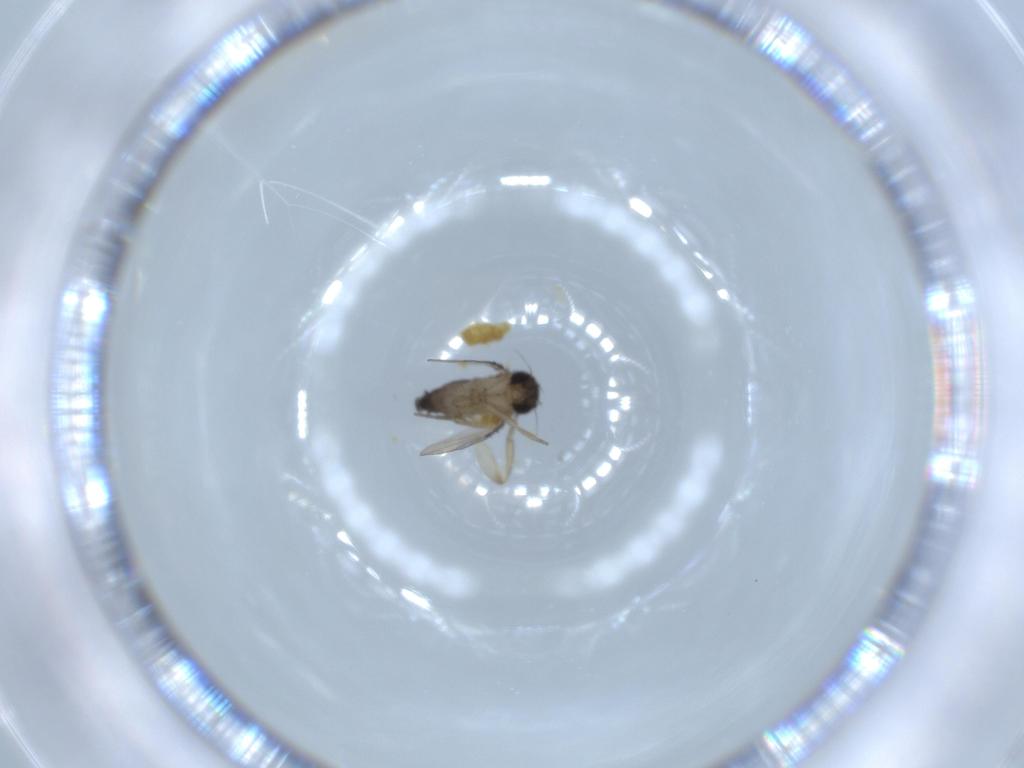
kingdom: Animalia
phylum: Arthropoda
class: Insecta
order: Diptera
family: Phoridae
